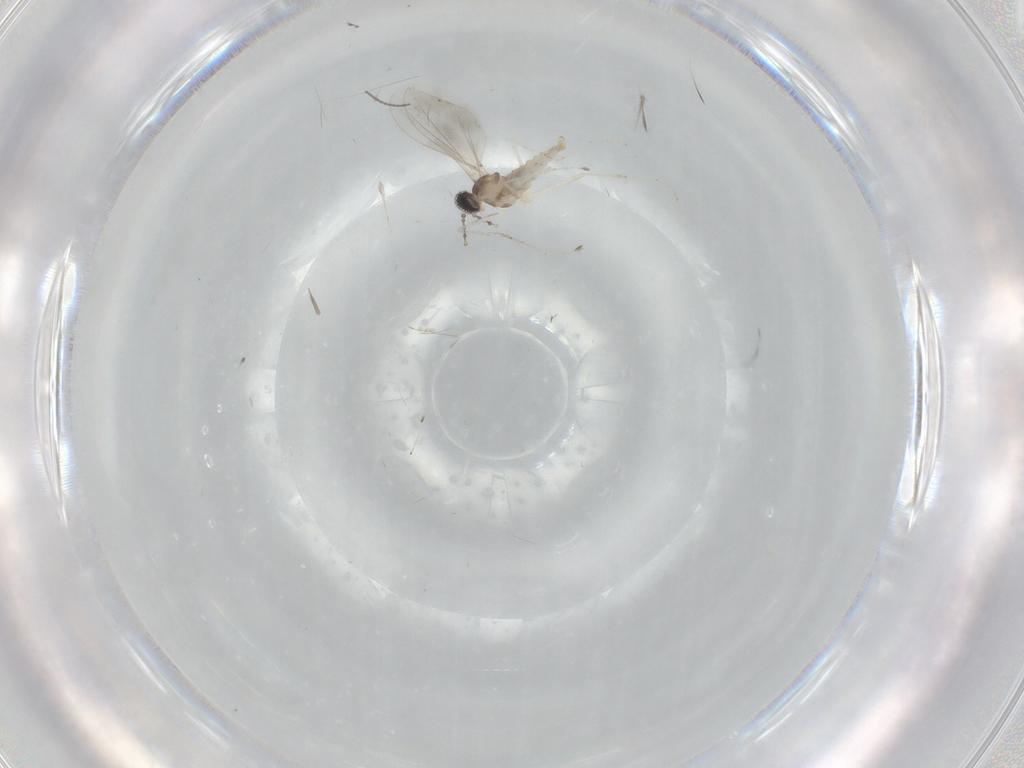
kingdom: Animalia
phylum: Arthropoda
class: Insecta
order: Diptera
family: Cecidomyiidae
